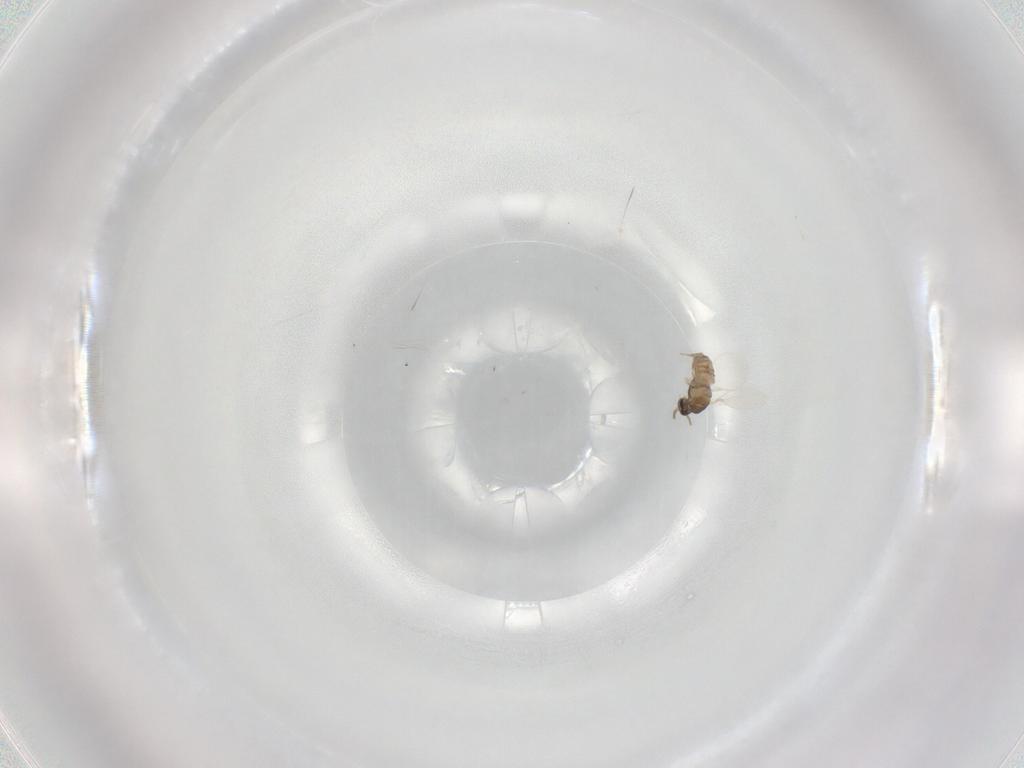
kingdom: Animalia
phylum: Arthropoda
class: Insecta
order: Diptera
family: Cecidomyiidae
